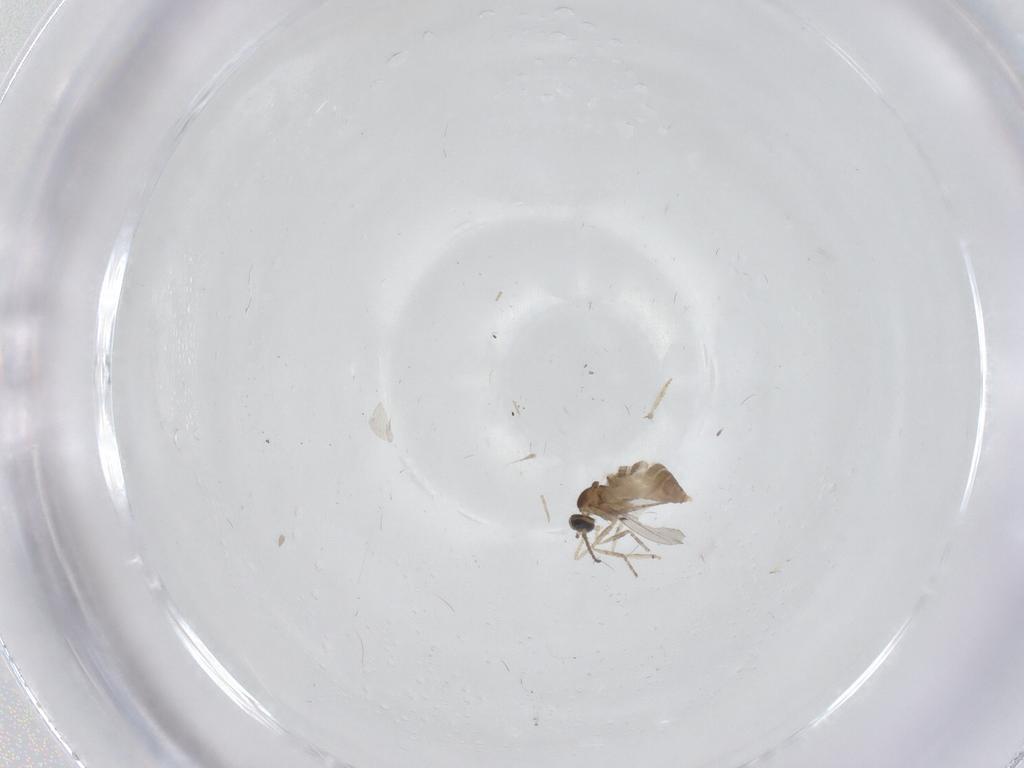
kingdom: Animalia
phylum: Arthropoda
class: Insecta
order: Diptera
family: Cecidomyiidae
